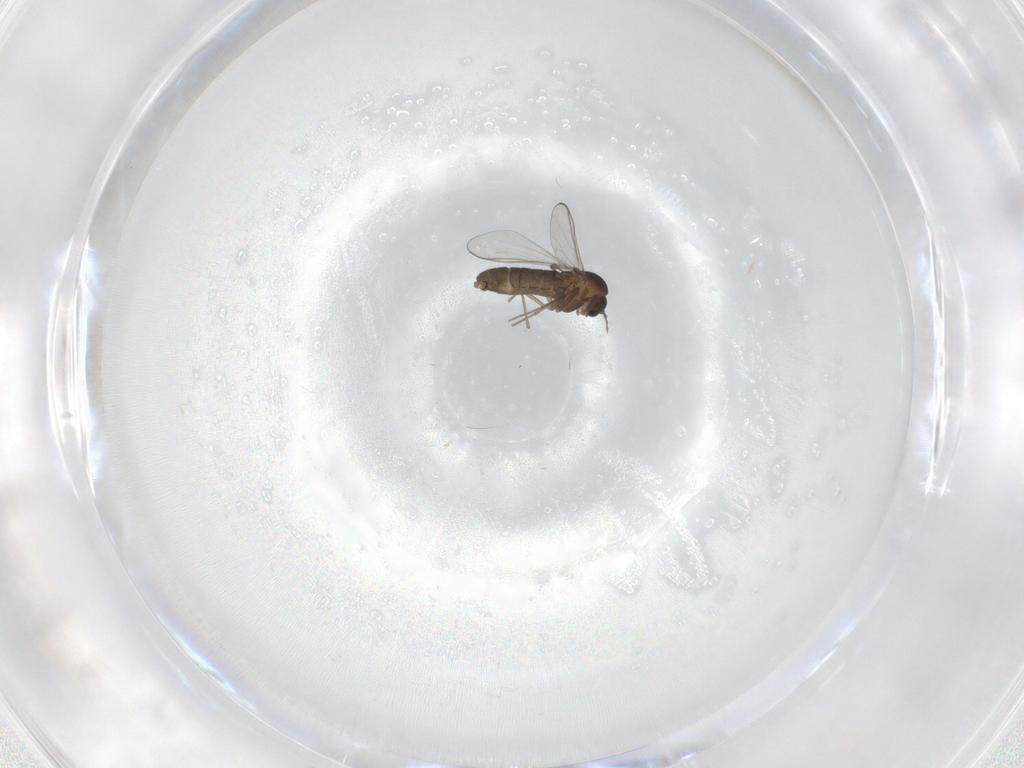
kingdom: Animalia
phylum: Arthropoda
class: Insecta
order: Diptera
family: Chironomidae
